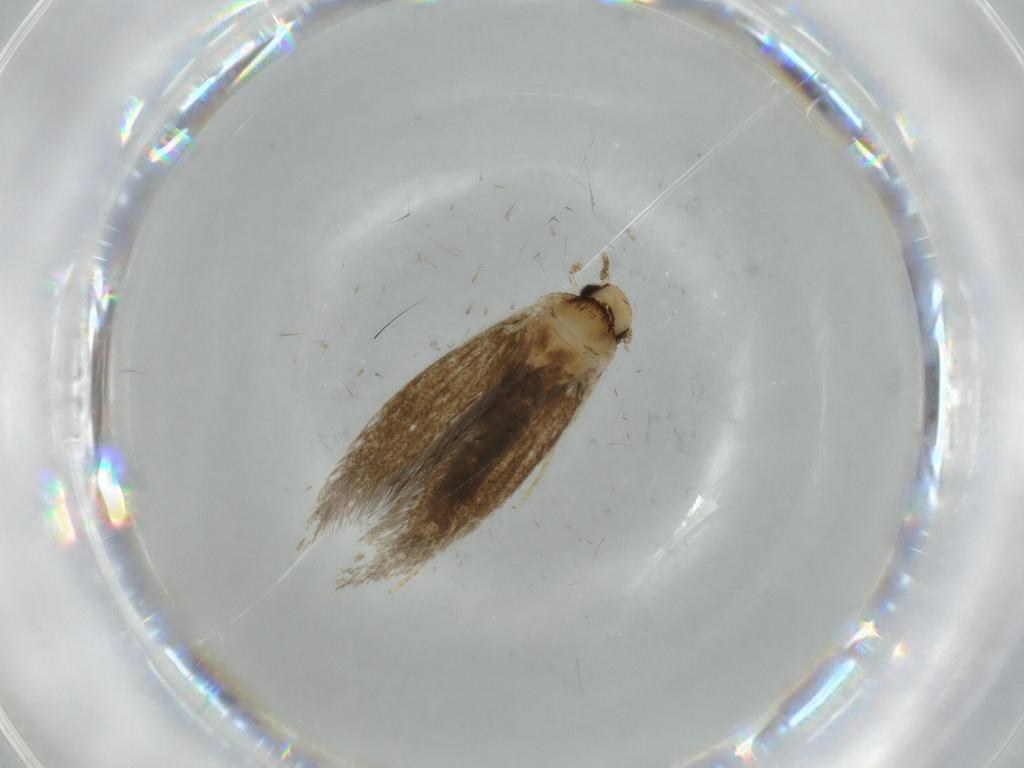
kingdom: Animalia
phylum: Arthropoda
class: Insecta
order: Lepidoptera
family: Tineidae
